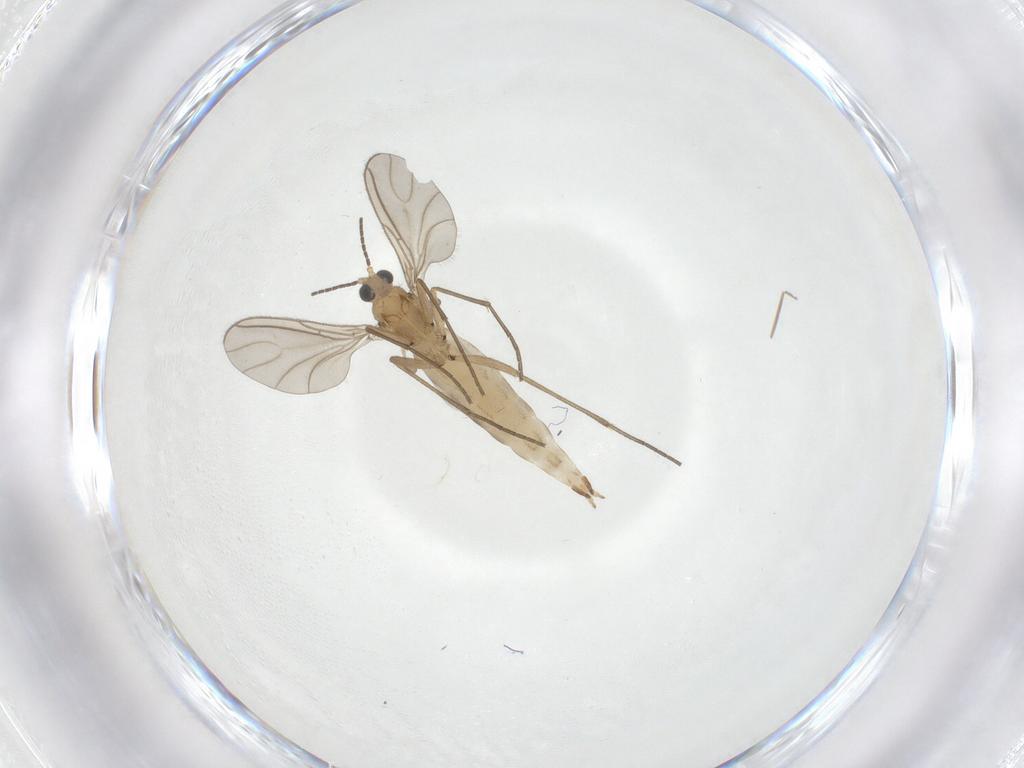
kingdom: Animalia
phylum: Arthropoda
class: Insecta
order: Diptera
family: Sciaridae
